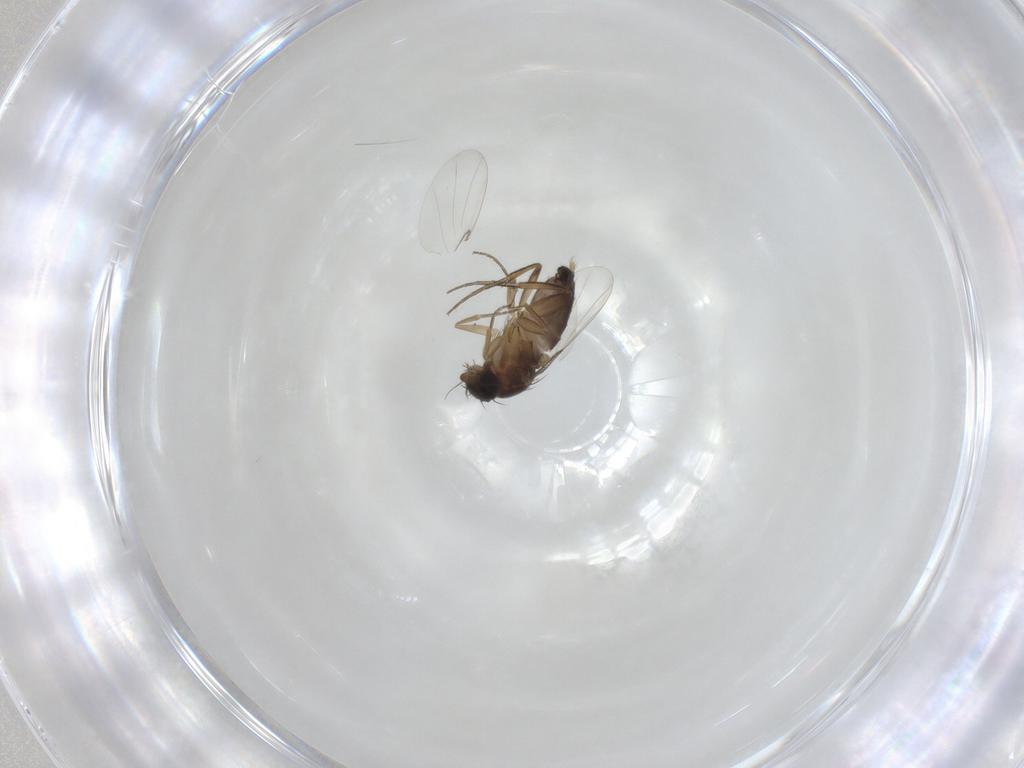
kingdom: Animalia
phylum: Arthropoda
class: Insecta
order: Diptera
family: Phoridae
